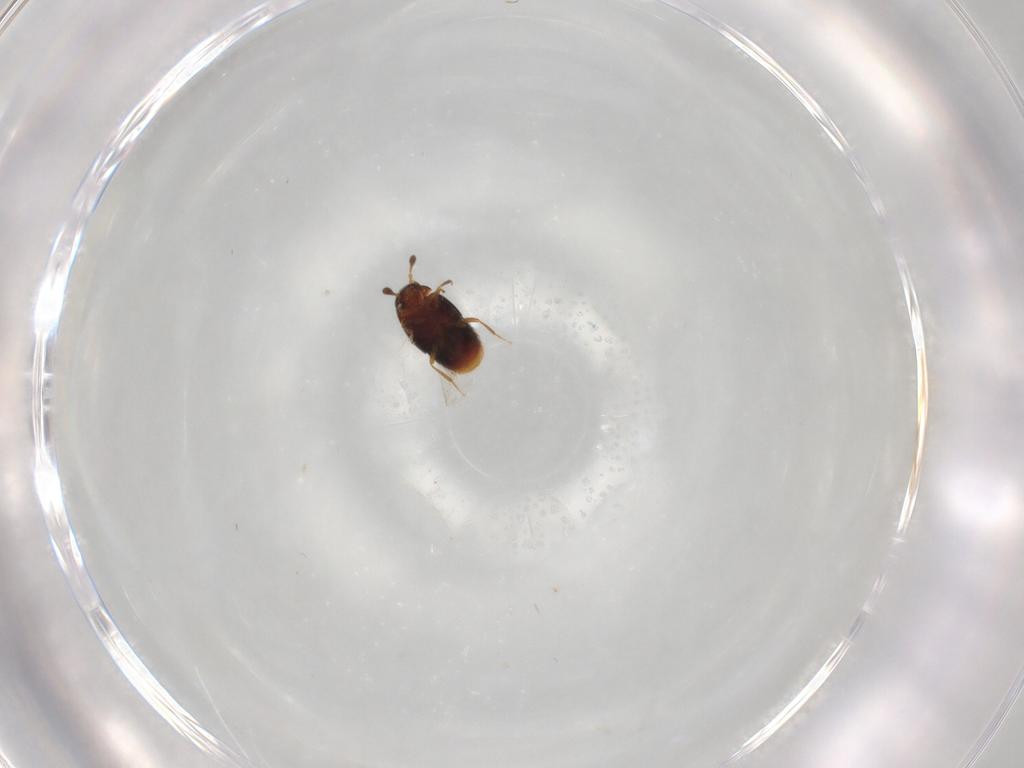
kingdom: Animalia
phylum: Arthropoda
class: Insecta
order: Coleoptera
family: Staphylinidae
